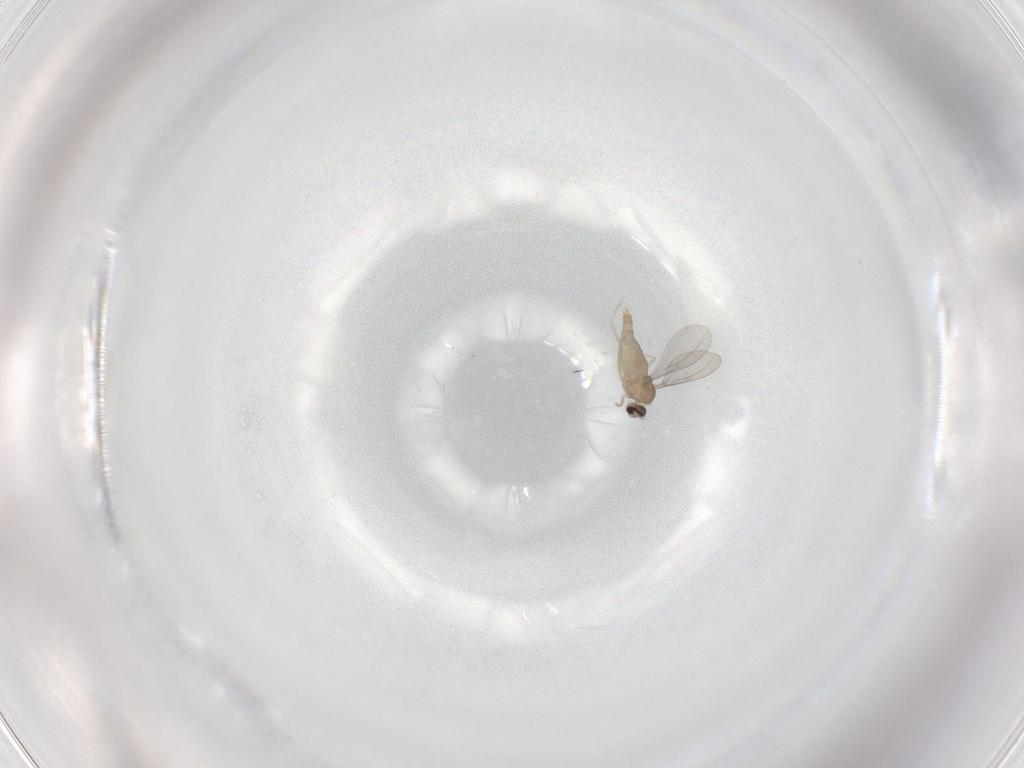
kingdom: Animalia
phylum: Arthropoda
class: Insecta
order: Diptera
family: Cecidomyiidae
